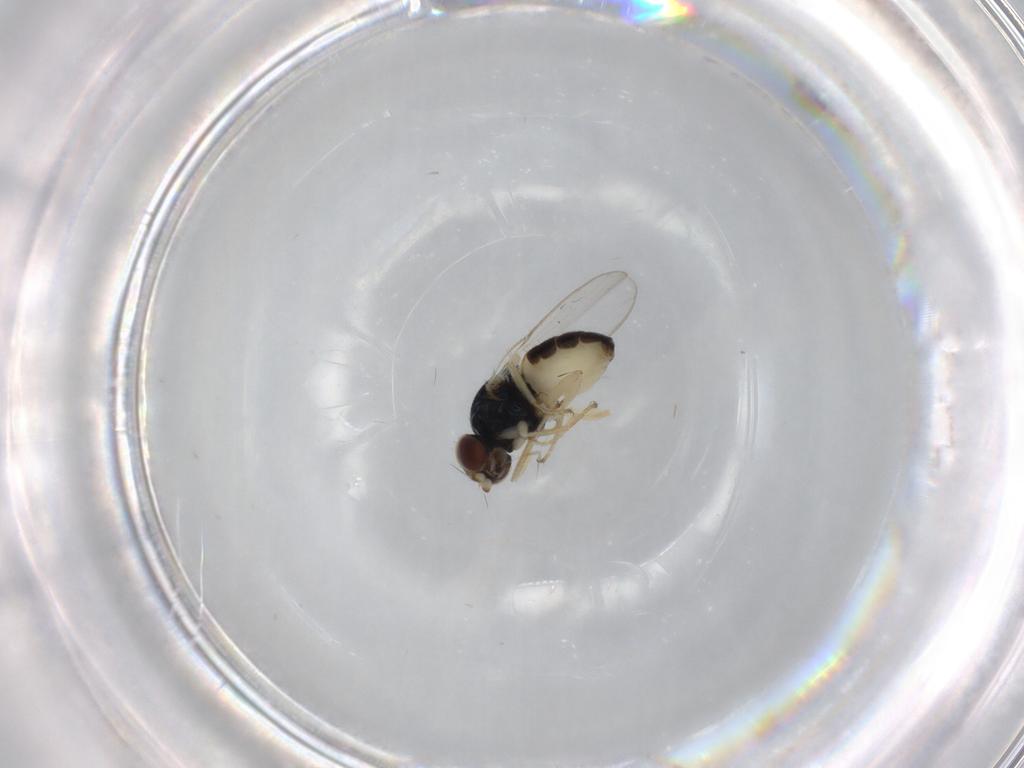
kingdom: Animalia
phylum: Arthropoda
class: Insecta
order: Diptera
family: Chloropidae
